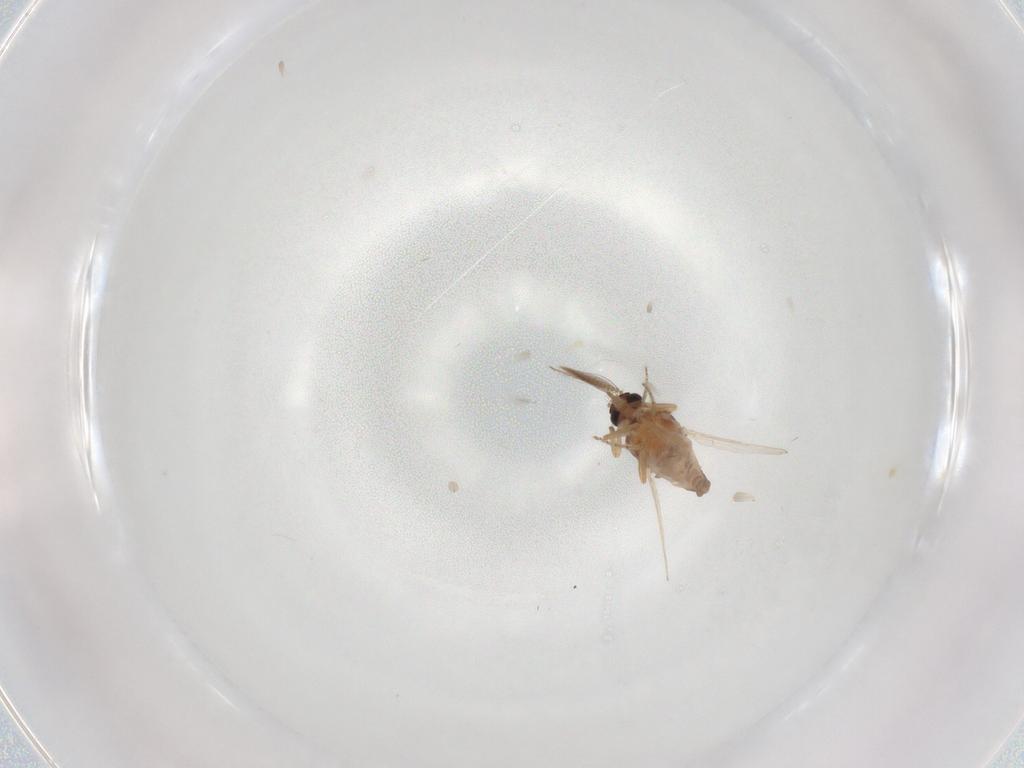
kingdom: Animalia
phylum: Arthropoda
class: Insecta
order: Diptera
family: Ceratopogonidae
